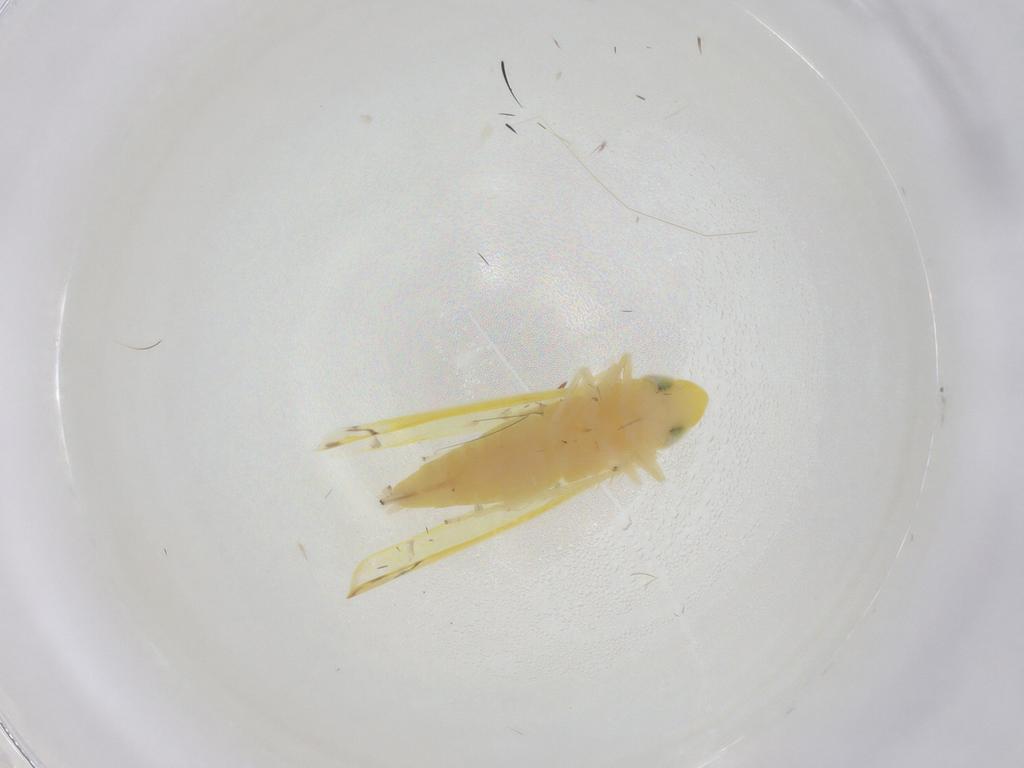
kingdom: Animalia
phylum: Arthropoda
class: Insecta
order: Hemiptera
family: Cicadellidae
